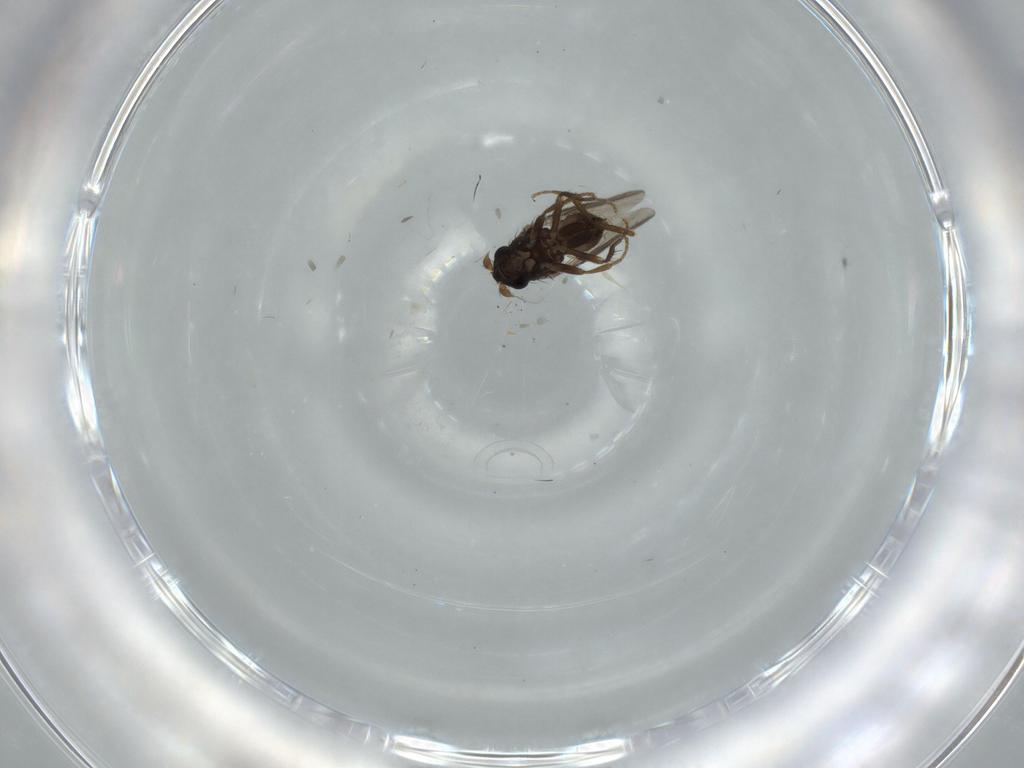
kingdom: Animalia
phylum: Arthropoda
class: Insecta
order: Diptera
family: Sphaeroceridae
